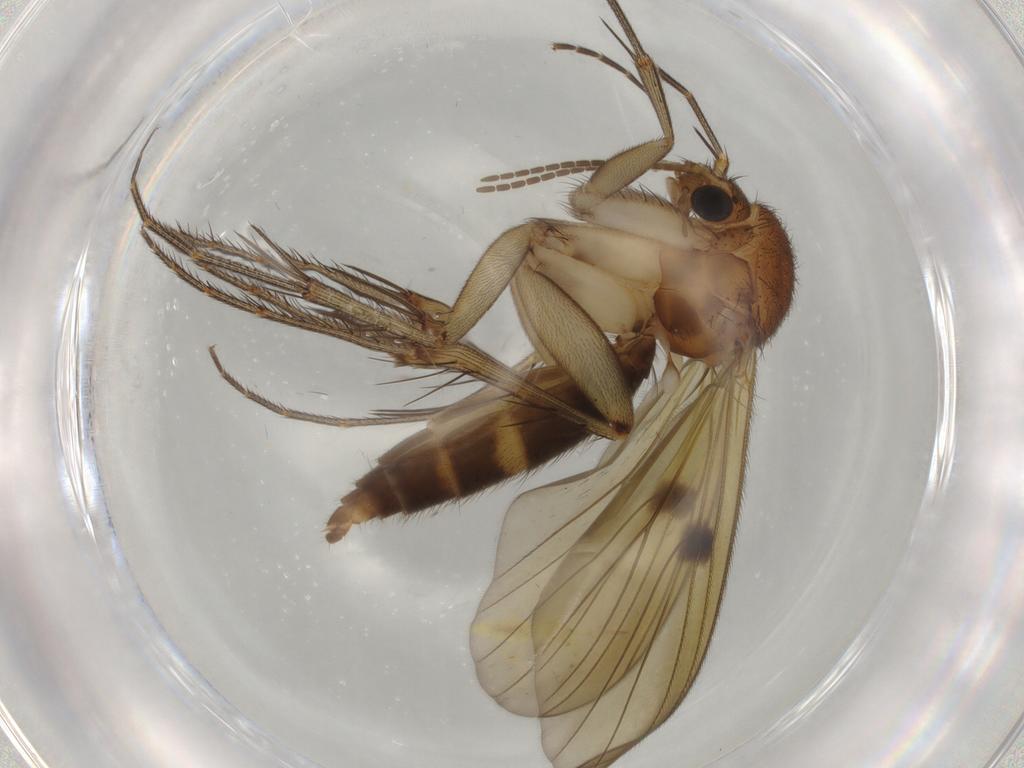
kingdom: Animalia
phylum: Arthropoda
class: Insecta
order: Diptera
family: Mycetophilidae
